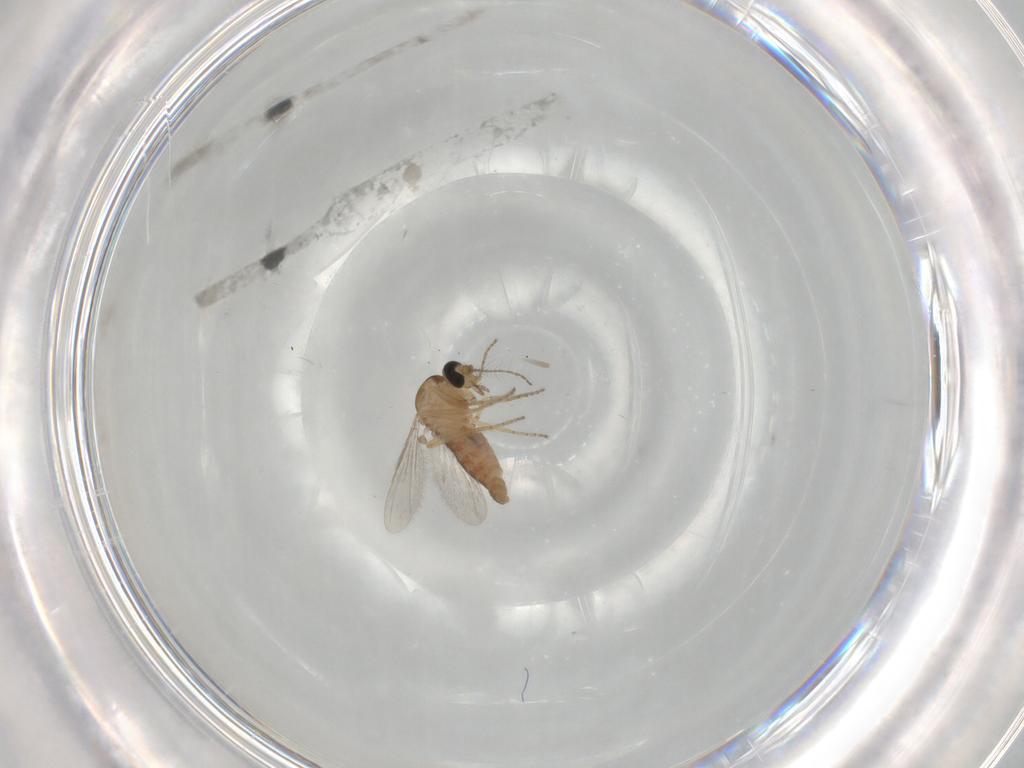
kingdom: Animalia
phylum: Arthropoda
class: Insecta
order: Diptera
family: Ceratopogonidae
